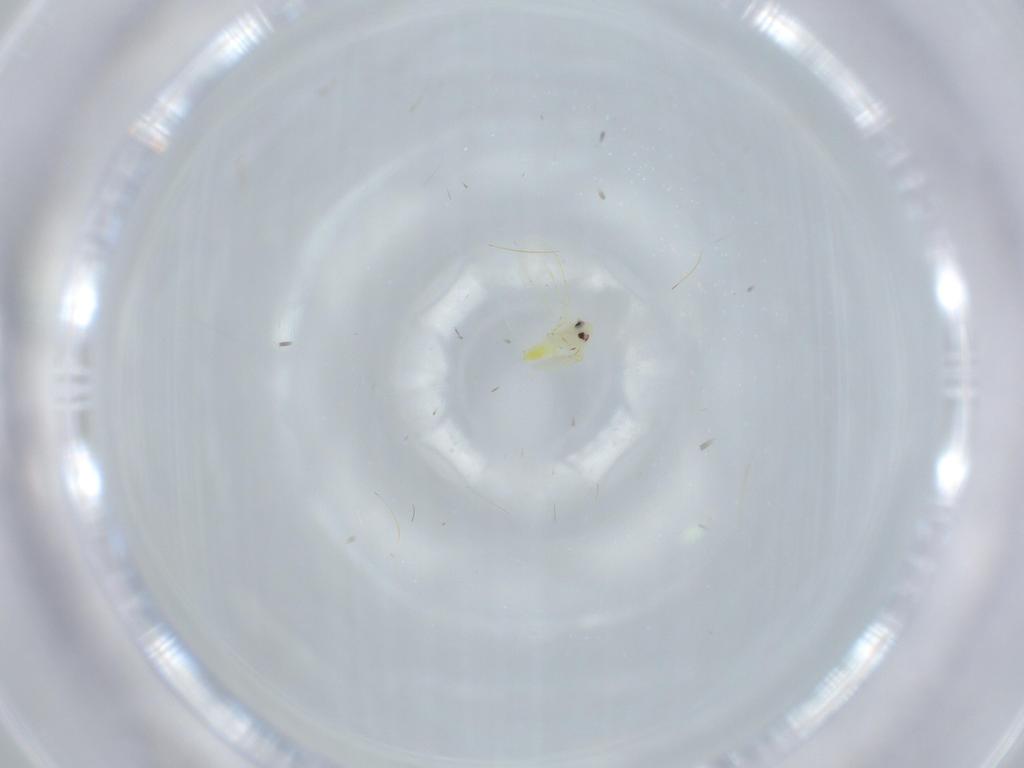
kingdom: Animalia
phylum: Arthropoda
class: Insecta
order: Hemiptera
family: Aleyrodidae
